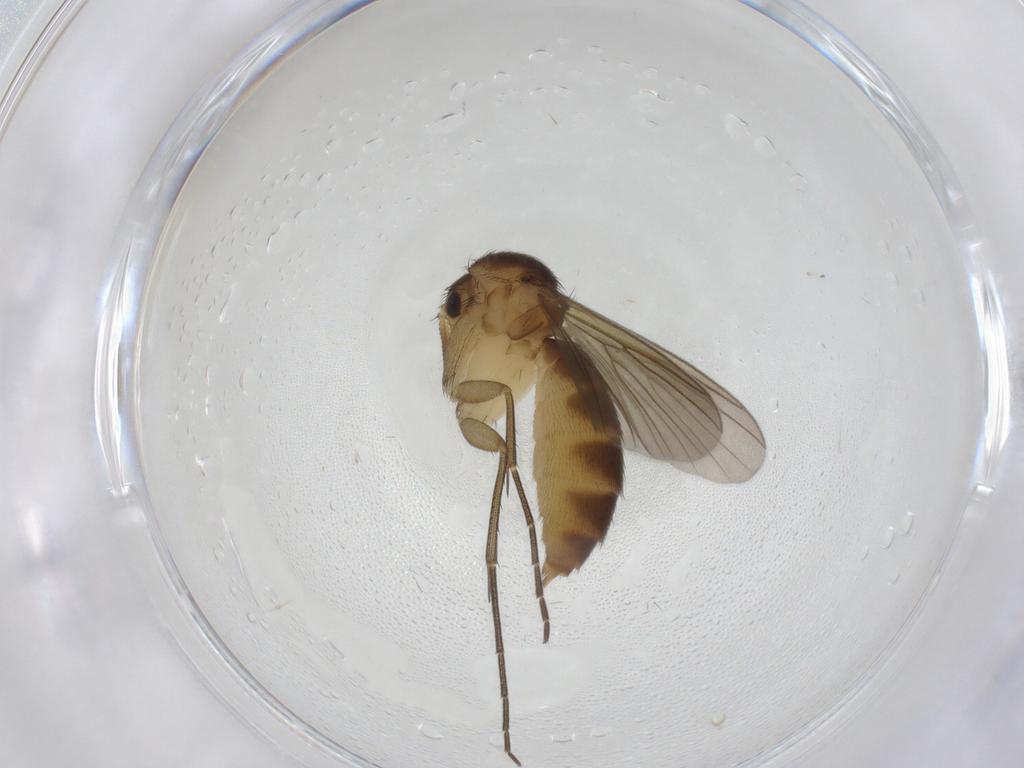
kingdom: Animalia
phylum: Arthropoda
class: Insecta
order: Diptera
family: Mycetophilidae
